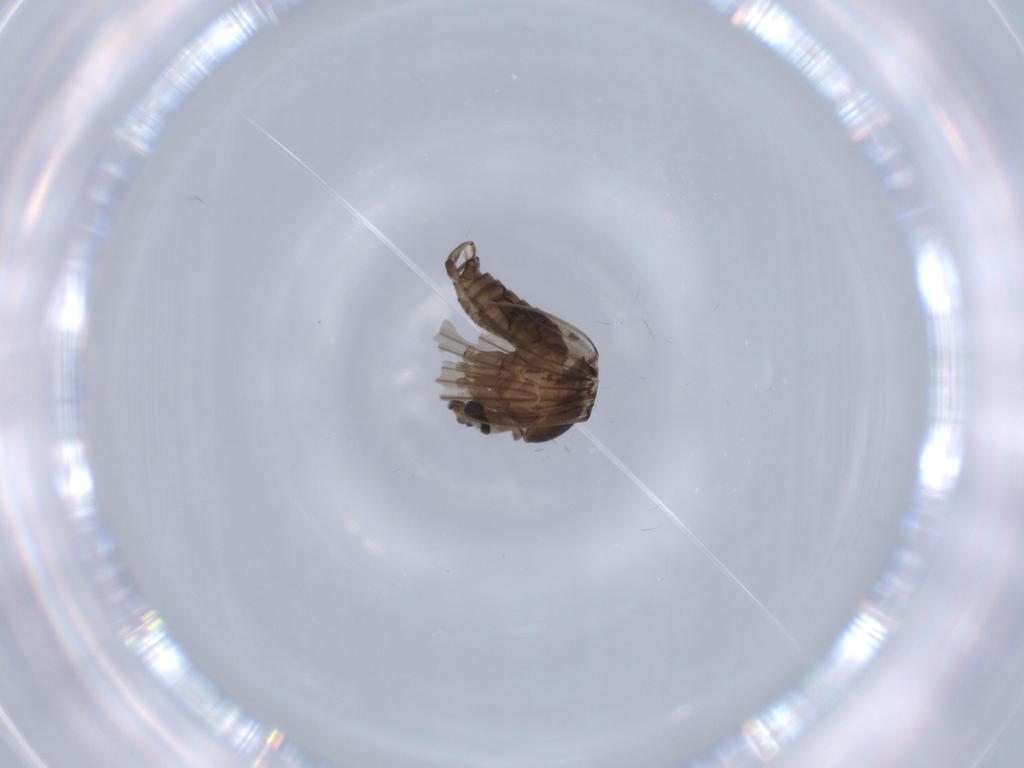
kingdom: Animalia
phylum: Arthropoda
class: Insecta
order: Diptera
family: Psychodidae
